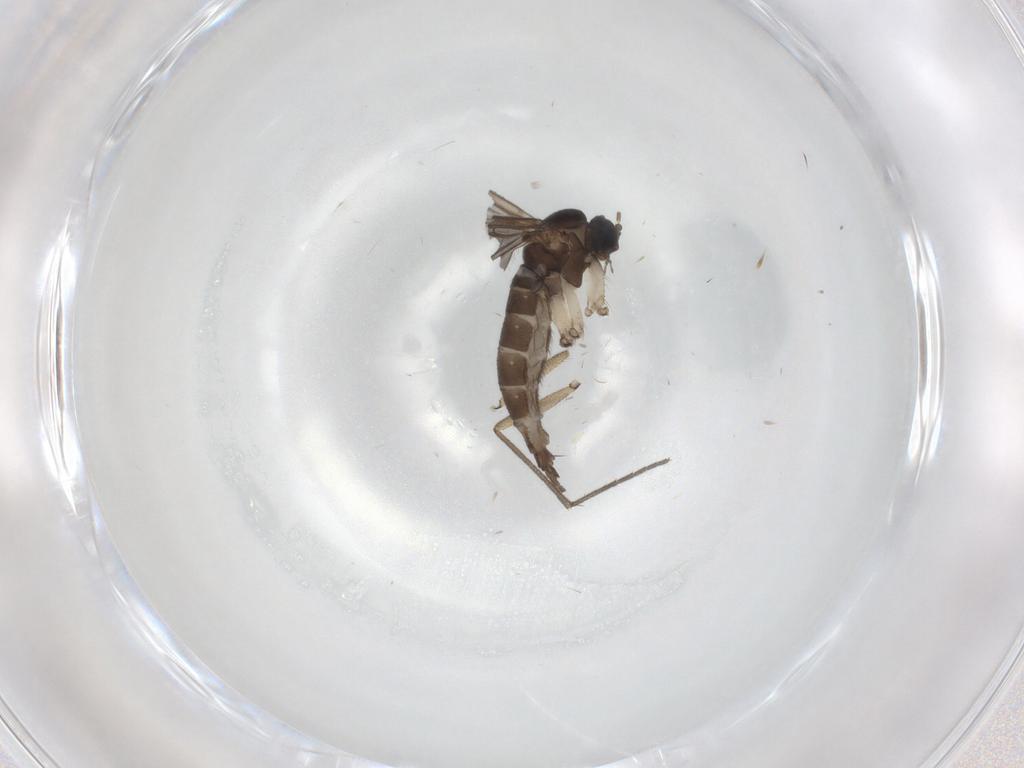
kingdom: Animalia
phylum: Arthropoda
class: Insecta
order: Diptera
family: Sciaridae
